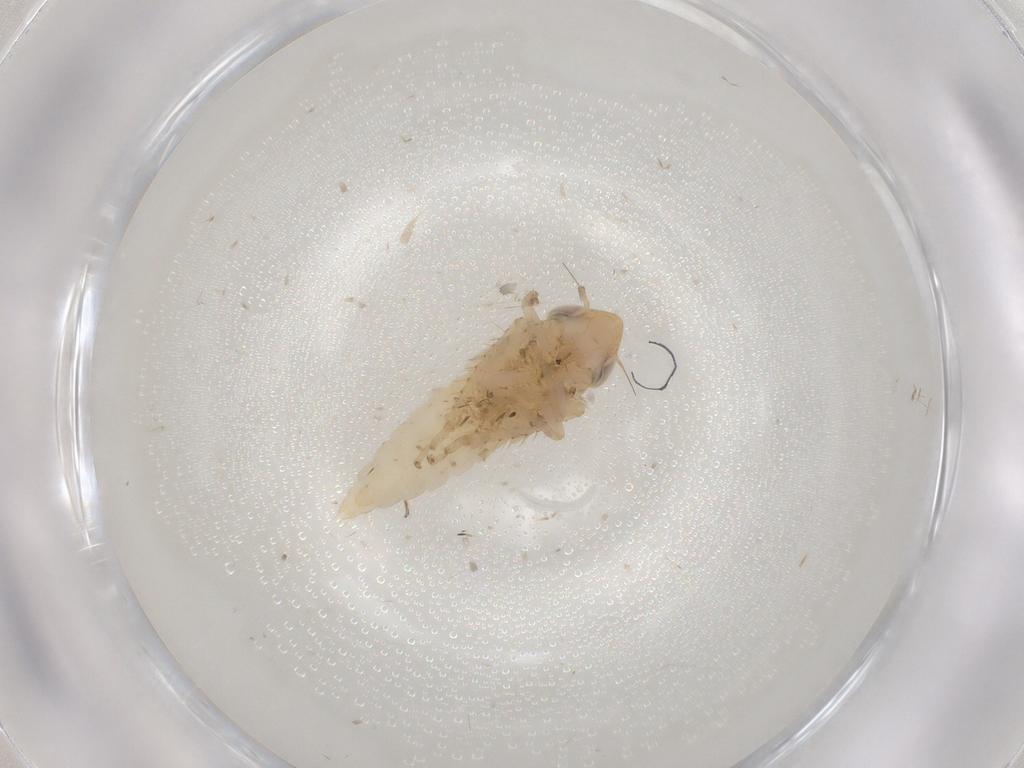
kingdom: Animalia
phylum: Arthropoda
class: Insecta
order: Hemiptera
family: Cicadellidae
